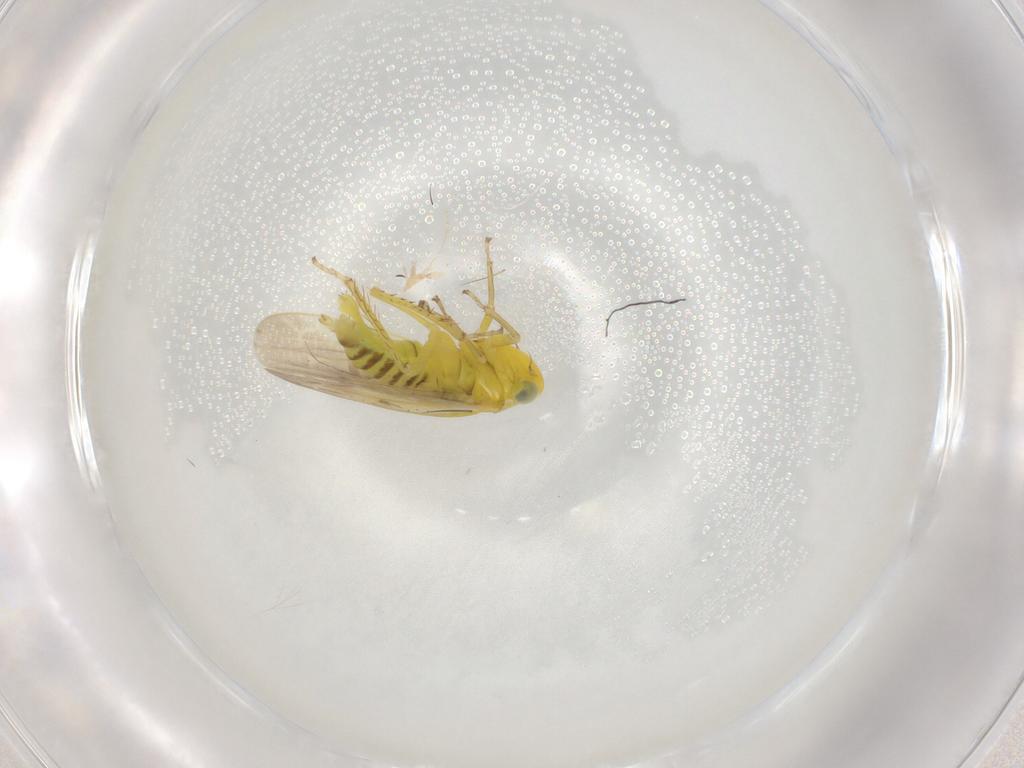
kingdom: Animalia
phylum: Arthropoda
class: Insecta
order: Hemiptera
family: Cicadellidae
